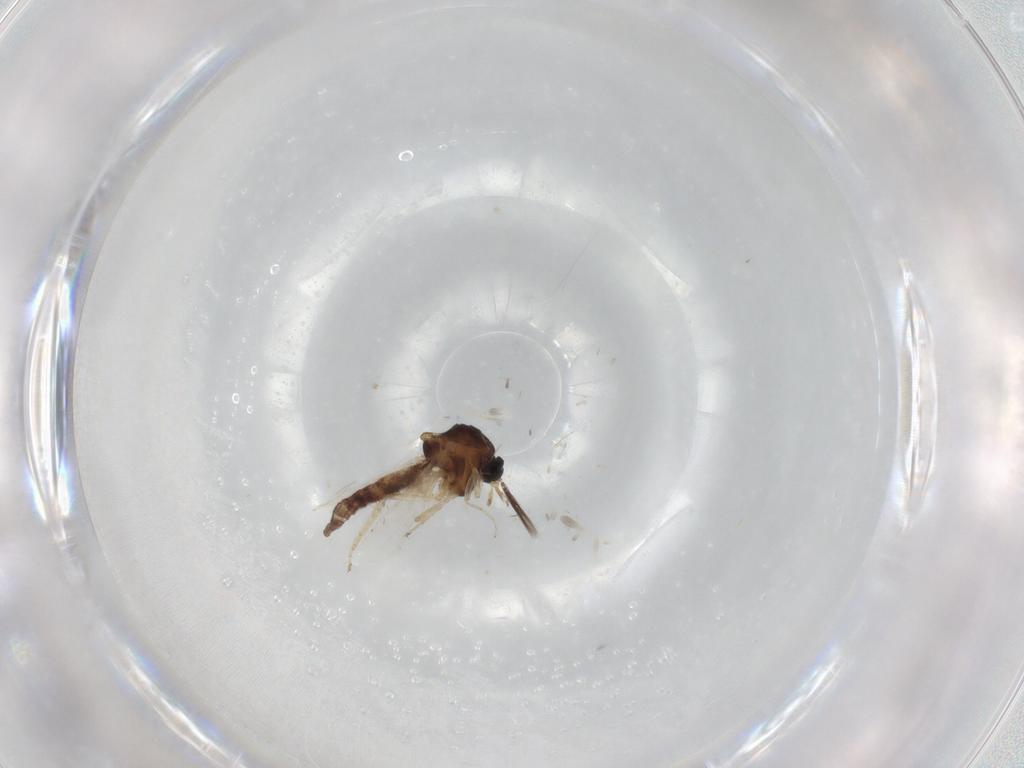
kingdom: Animalia
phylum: Arthropoda
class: Insecta
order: Diptera
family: Ceratopogonidae
